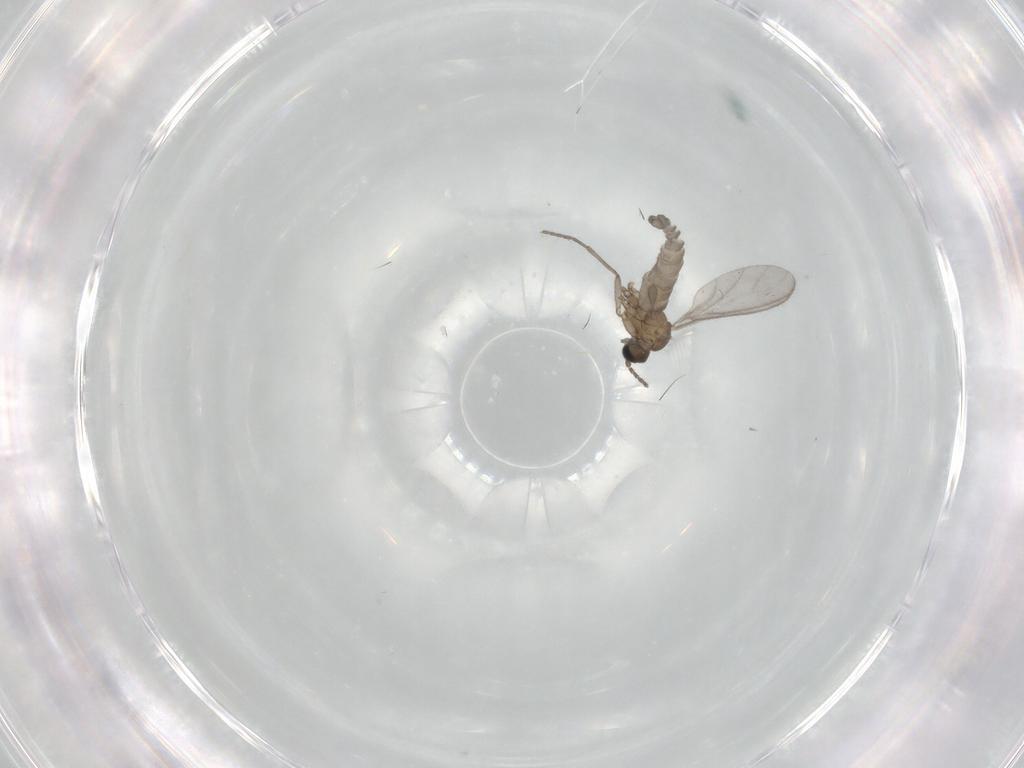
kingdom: Animalia
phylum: Arthropoda
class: Insecta
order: Diptera
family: Sciaridae
